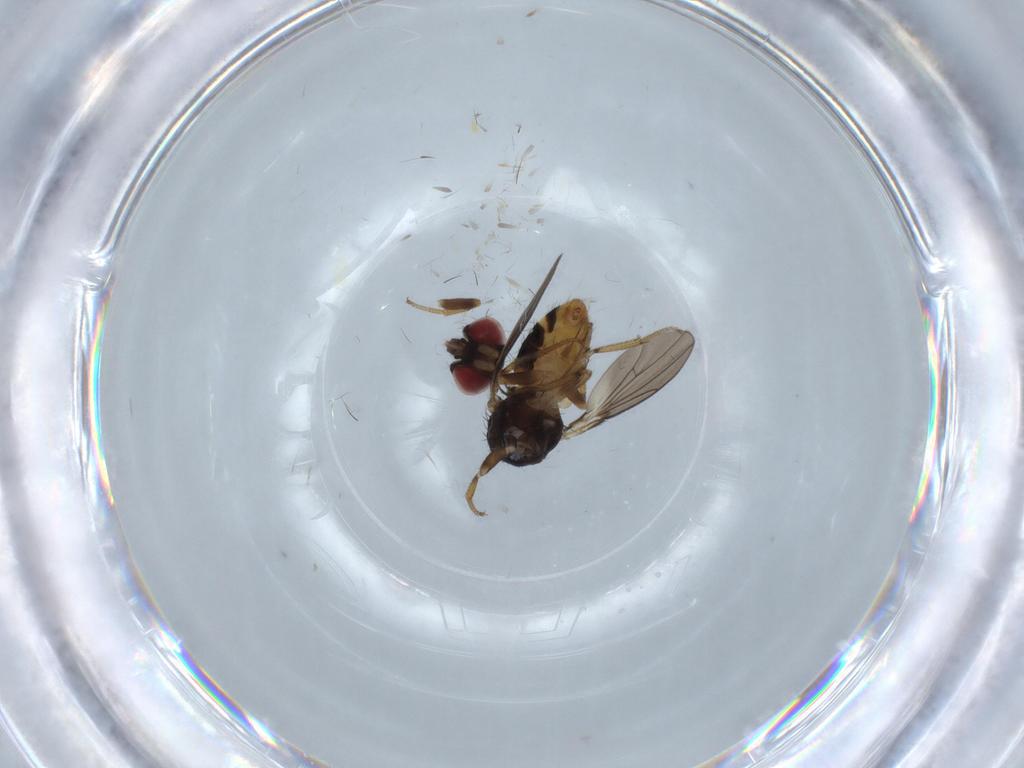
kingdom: Animalia
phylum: Arthropoda
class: Insecta
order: Diptera
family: Drosophilidae
